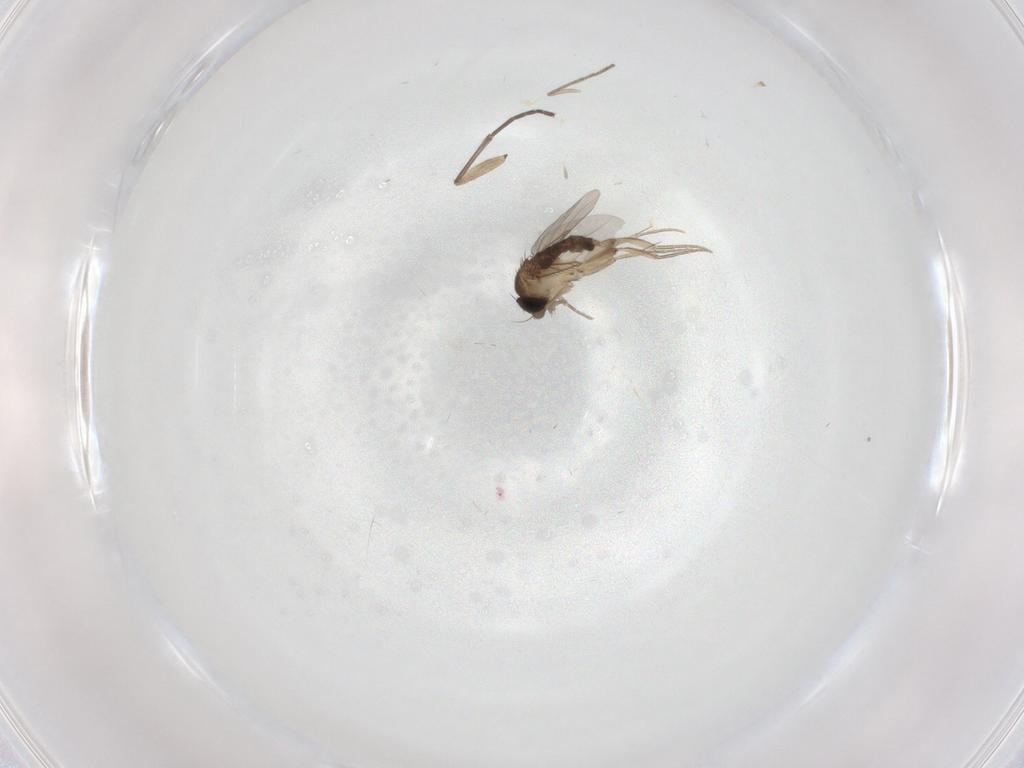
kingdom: Animalia
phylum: Arthropoda
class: Insecta
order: Diptera
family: Phoridae
